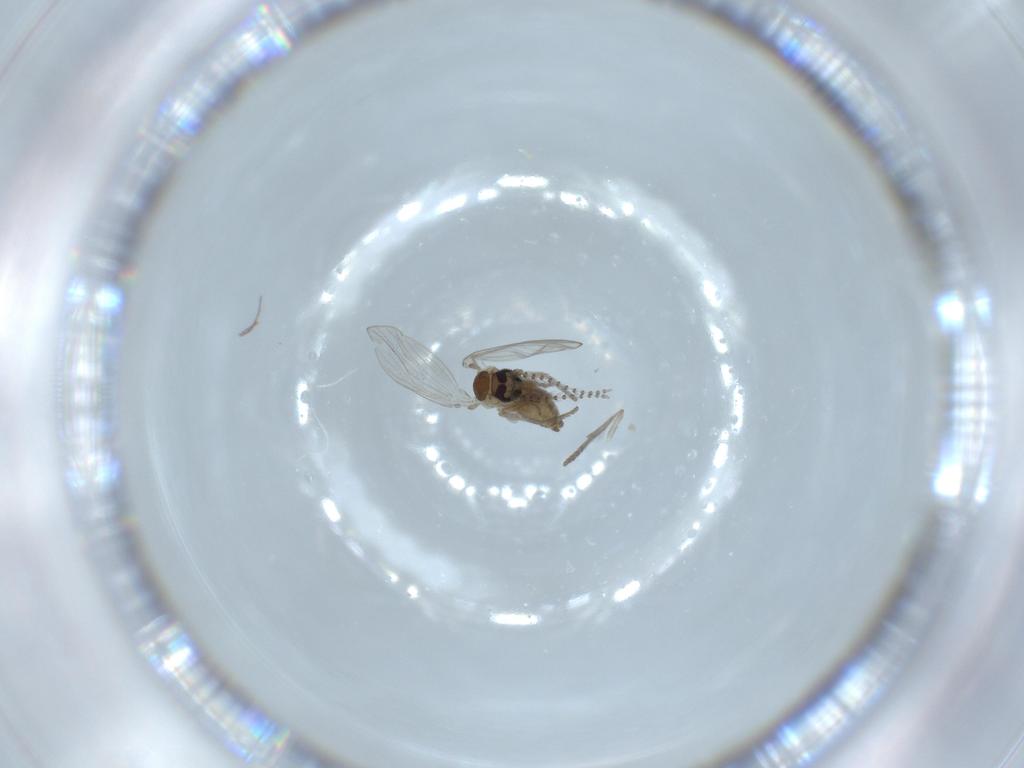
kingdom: Animalia
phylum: Arthropoda
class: Insecta
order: Diptera
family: Psychodidae
